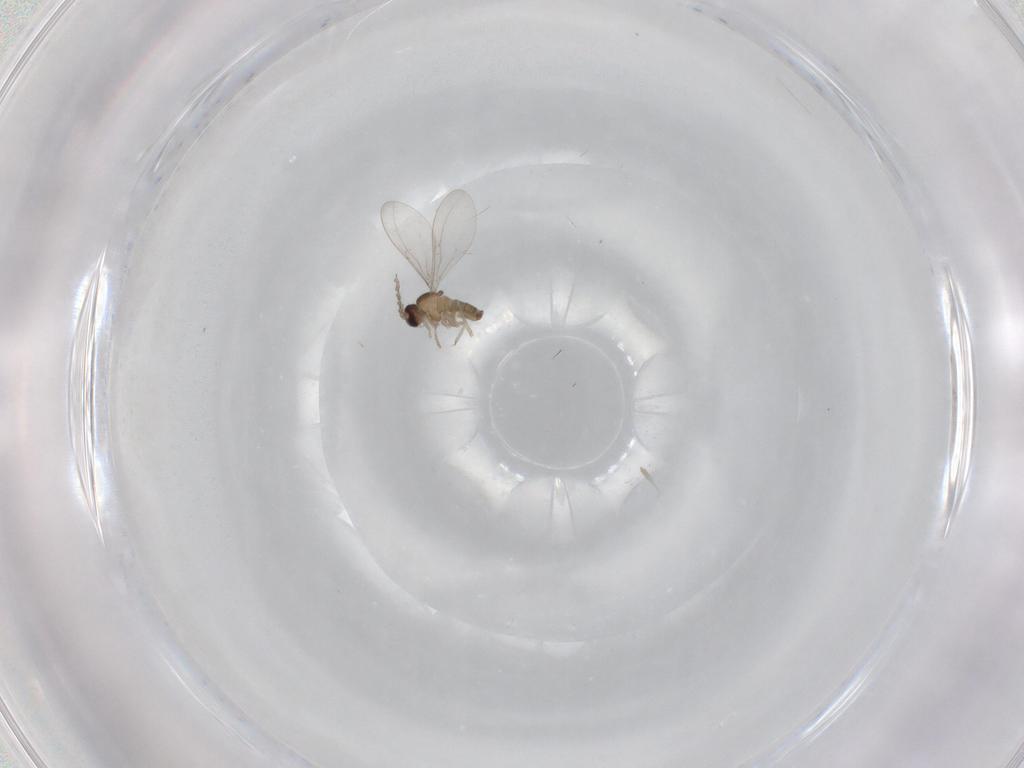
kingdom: Animalia
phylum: Arthropoda
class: Insecta
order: Diptera
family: Cecidomyiidae
